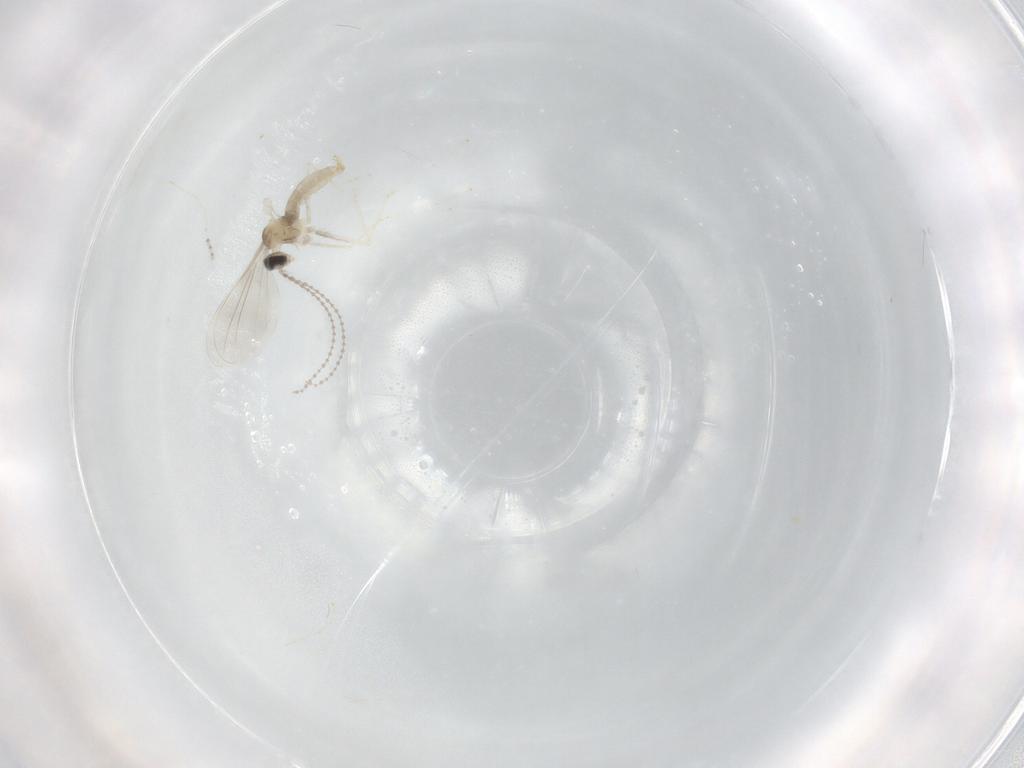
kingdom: Animalia
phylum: Arthropoda
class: Insecta
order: Diptera
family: Cecidomyiidae
